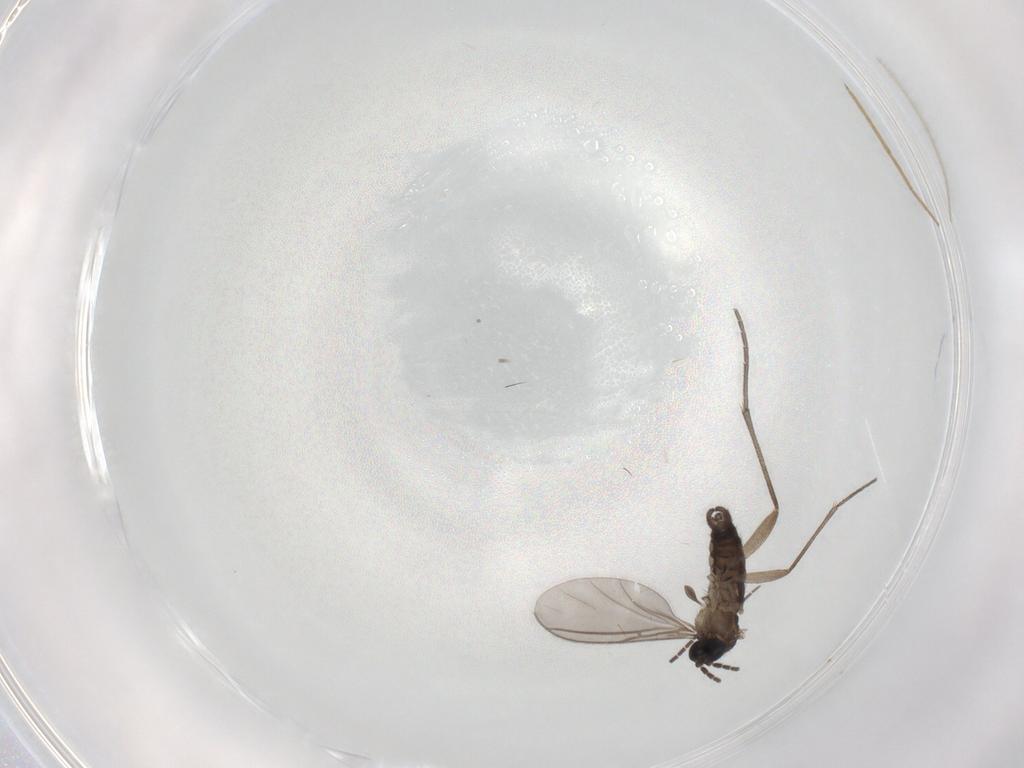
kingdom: Animalia
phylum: Arthropoda
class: Insecta
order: Diptera
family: Sciaridae
